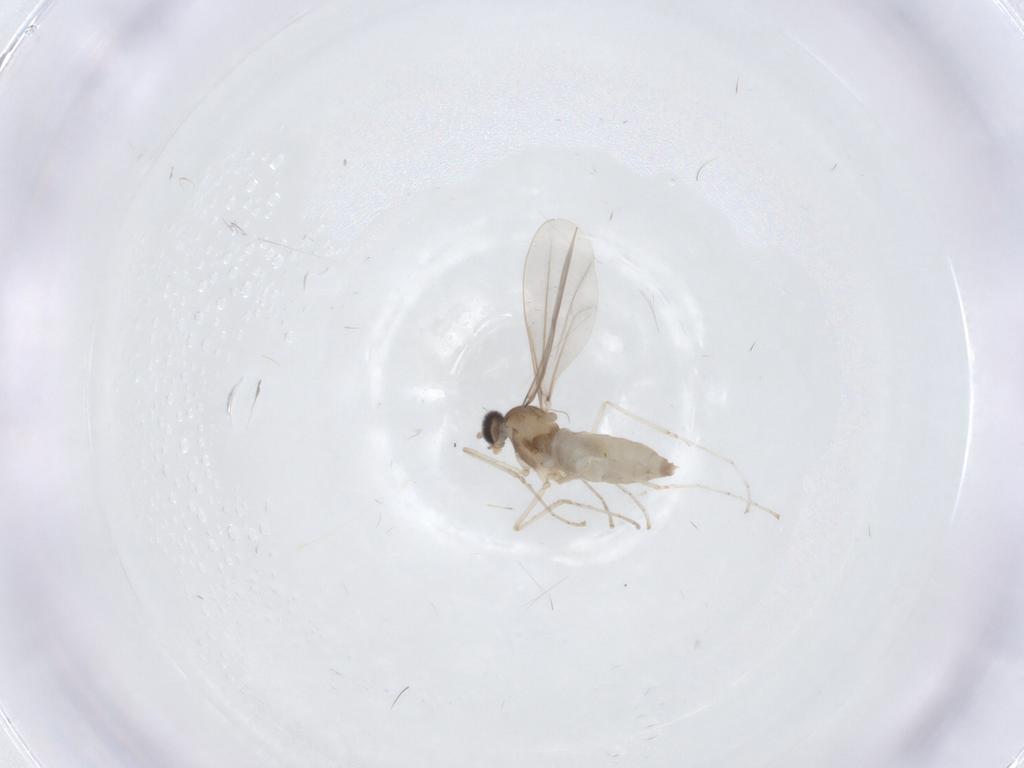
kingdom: Animalia
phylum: Arthropoda
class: Insecta
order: Diptera
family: Cecidomyiidae
